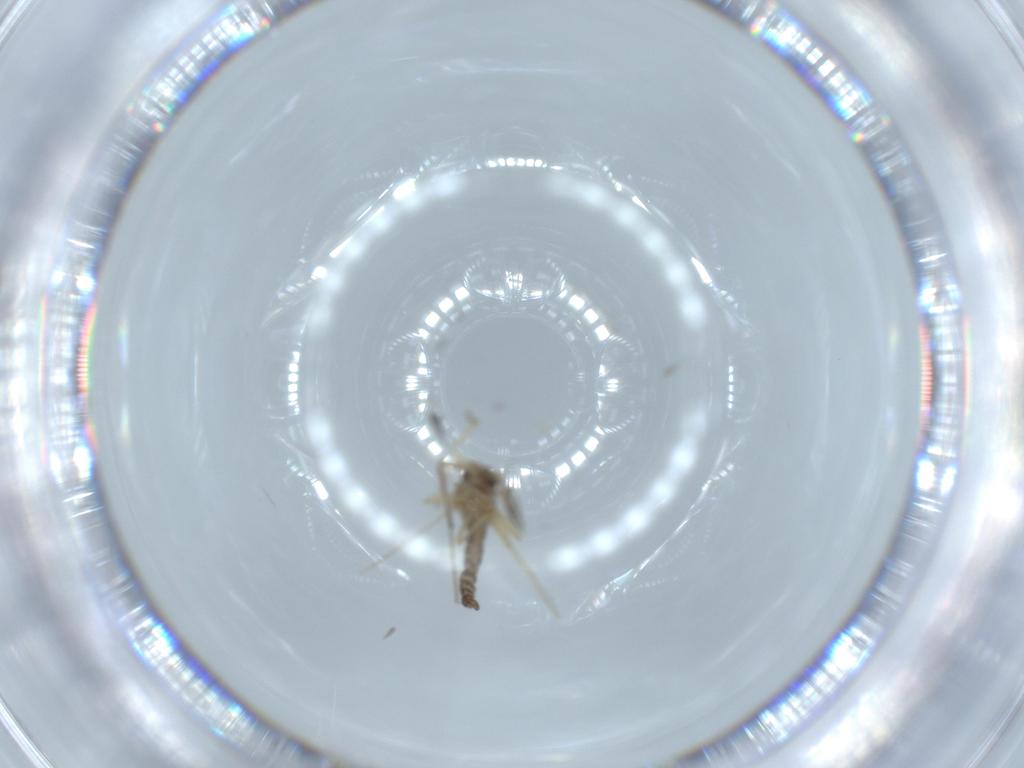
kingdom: Animalia
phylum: Arthropoda
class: Insecta
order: Diptera
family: Ceratopogonidae
